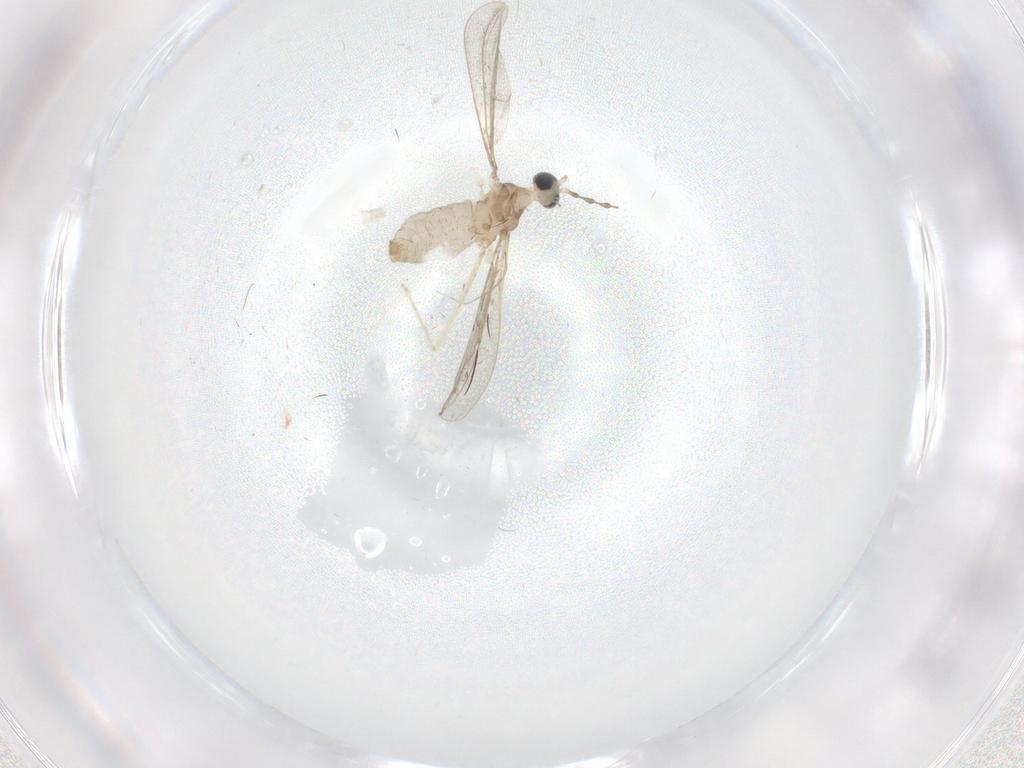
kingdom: Animalia
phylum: Arthropoda
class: Insecta
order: Diptera
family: Cecidomyiidae
